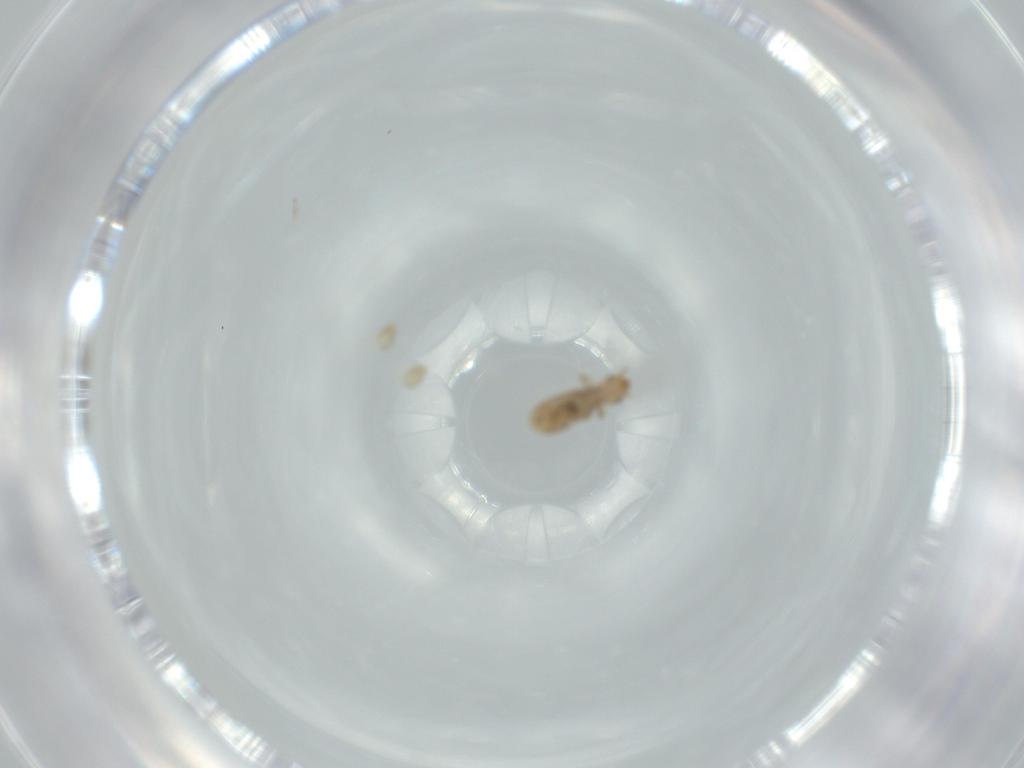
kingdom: Animalia
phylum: Arthropoda
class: Insecta
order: Psocodea
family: Liposcelididae
